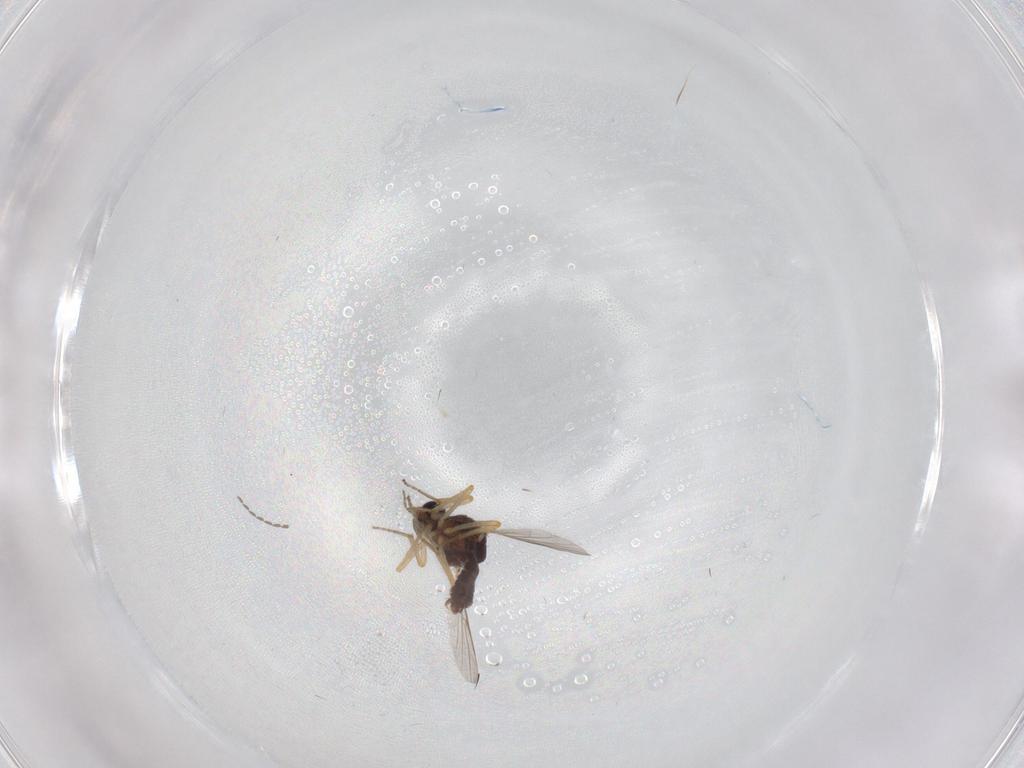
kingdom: Animalia
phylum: Arthropoda
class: Insecta
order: Diptera
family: Ceratopogonidae
